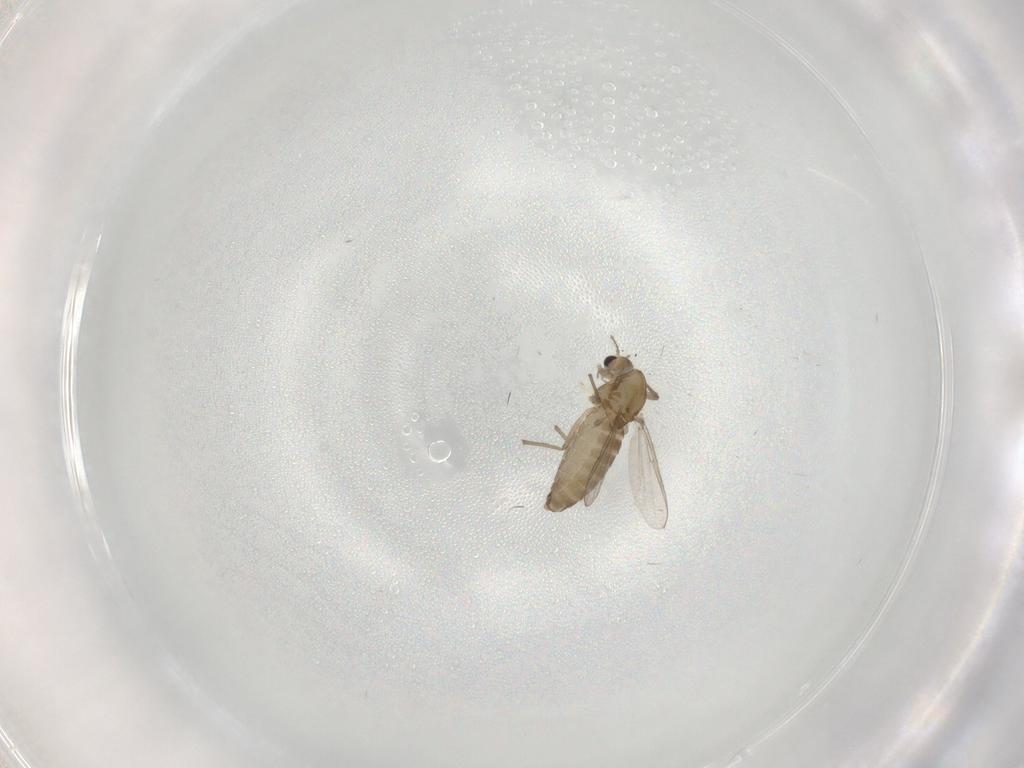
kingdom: Animalia
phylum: Arthropoda
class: Insecta
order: Diptera
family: Chironomidae
